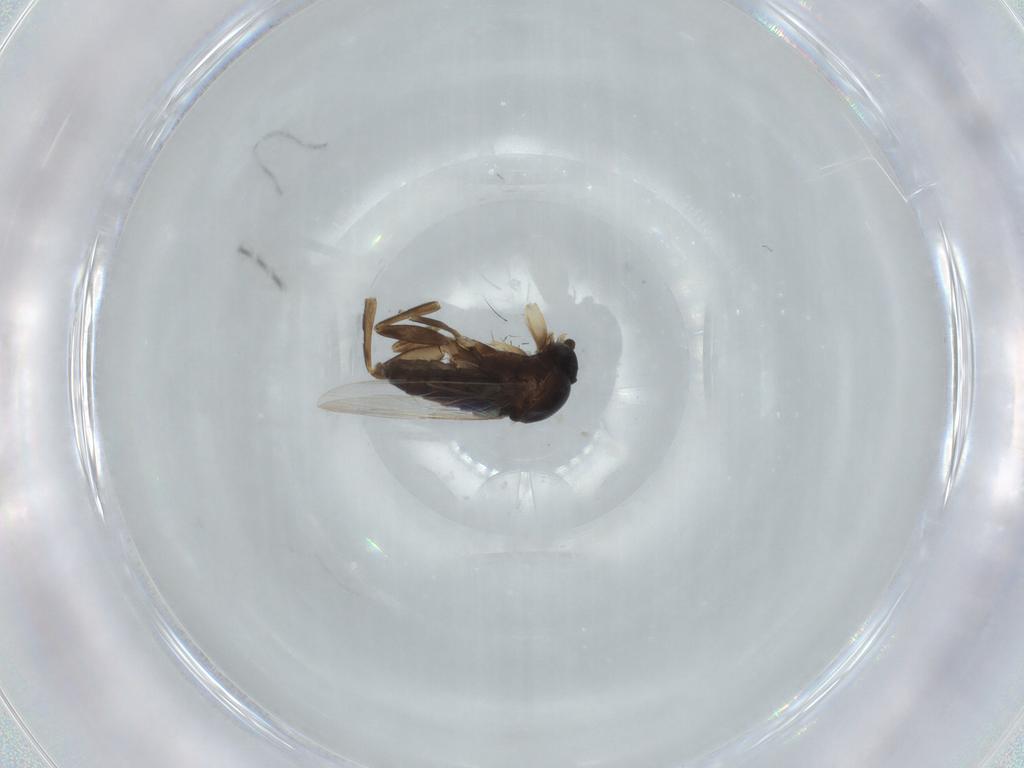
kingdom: Animalia
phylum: Arthropoda
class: Insecta
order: Diptera
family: Phoridae
